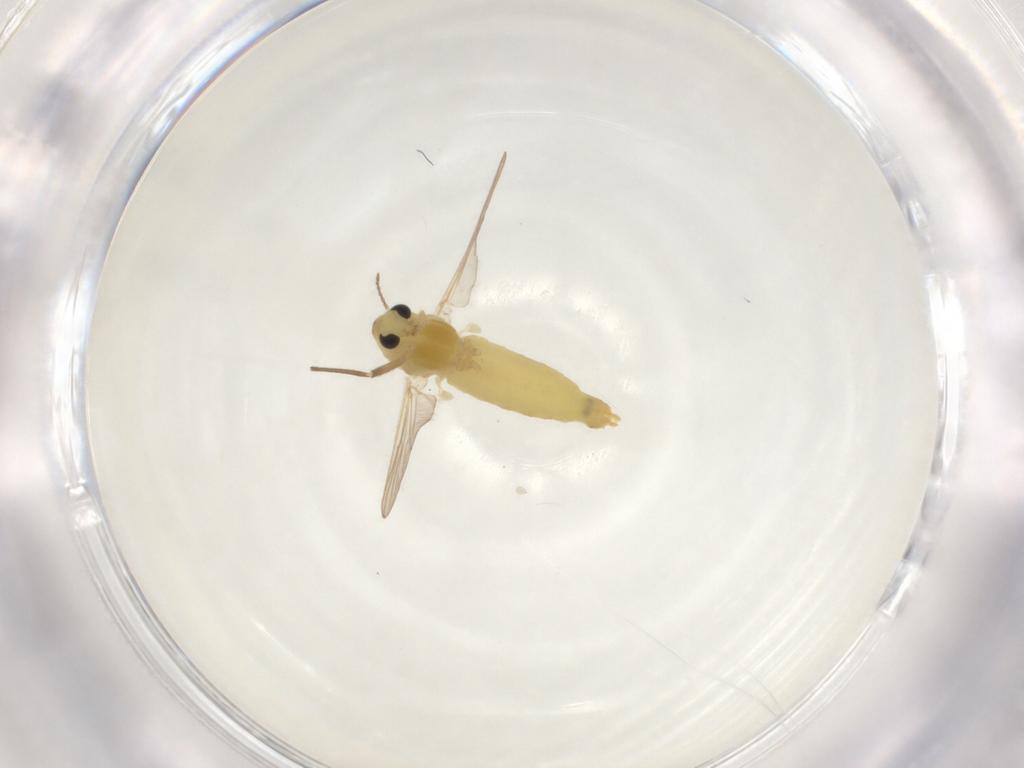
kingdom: Animalia
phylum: Arthropoda
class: Insecta
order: Diptera
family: Chironomidae
